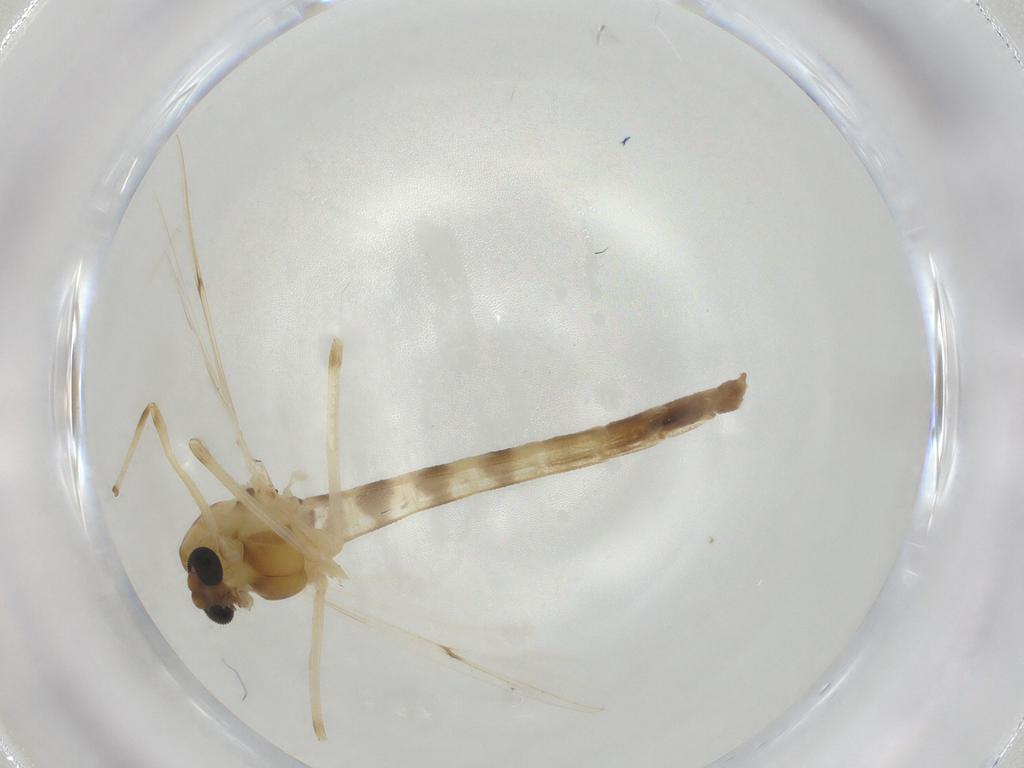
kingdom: Animalia
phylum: Arthropoda
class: Insecta
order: Diptera
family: Chironomidae
